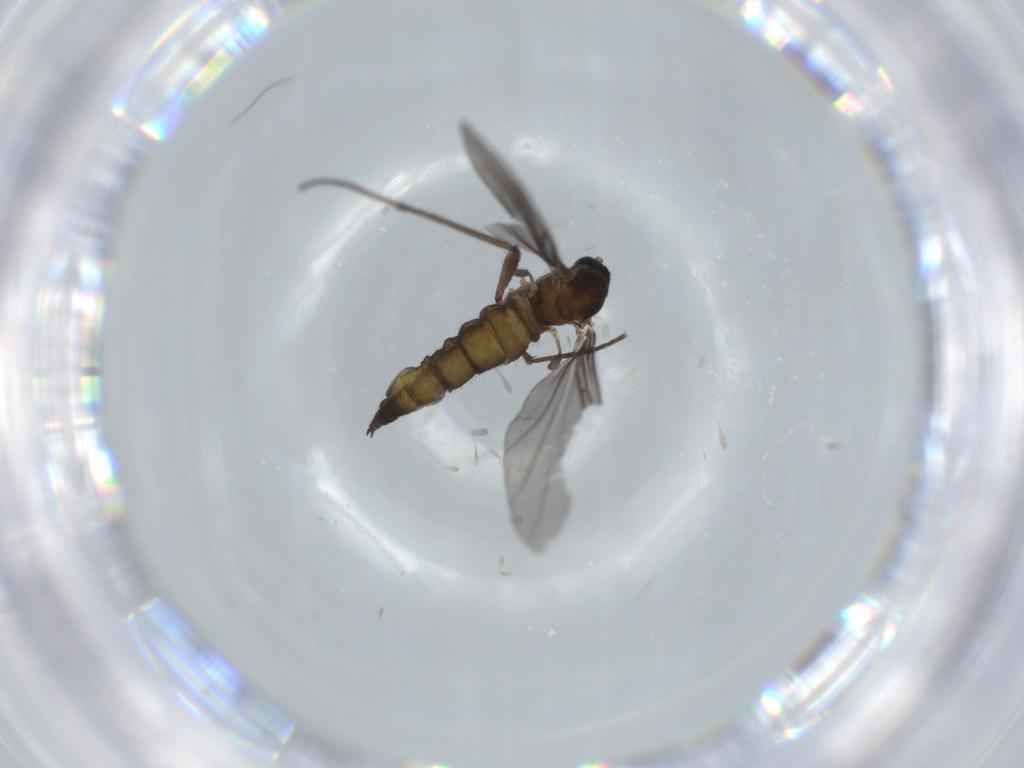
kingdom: Animalia
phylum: Arthropoda
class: Insecta
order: Diptera
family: Sciaridae
